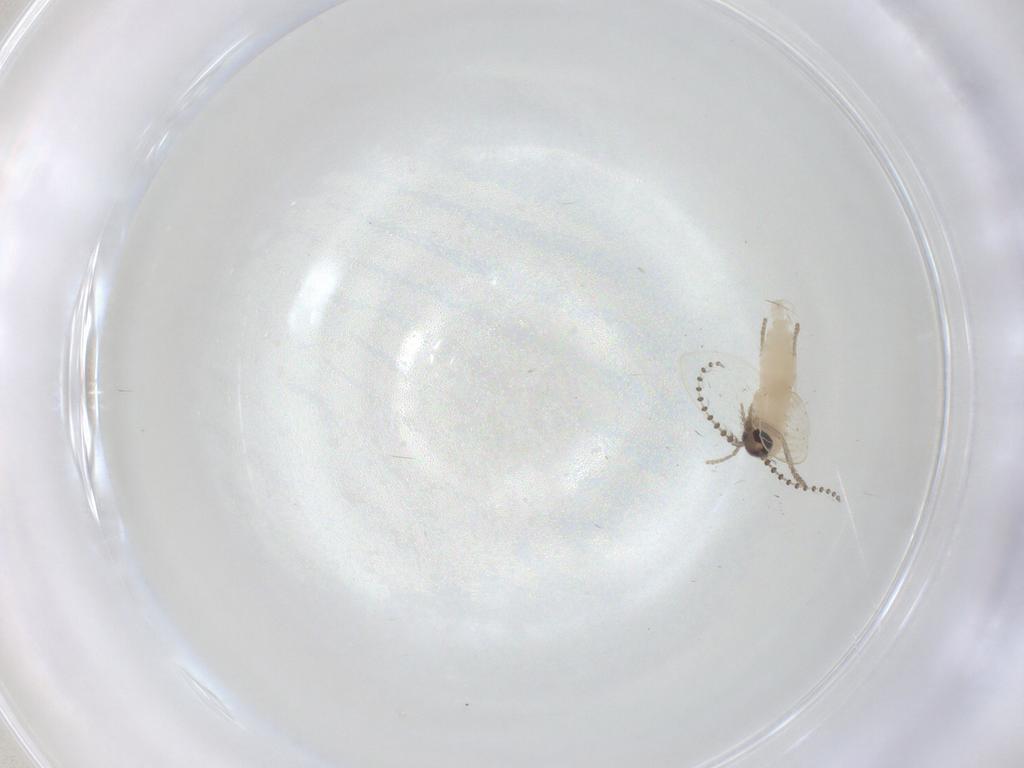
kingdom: Animalia
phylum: Arthropoda
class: Insecta
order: Diptera
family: Psychodidae
